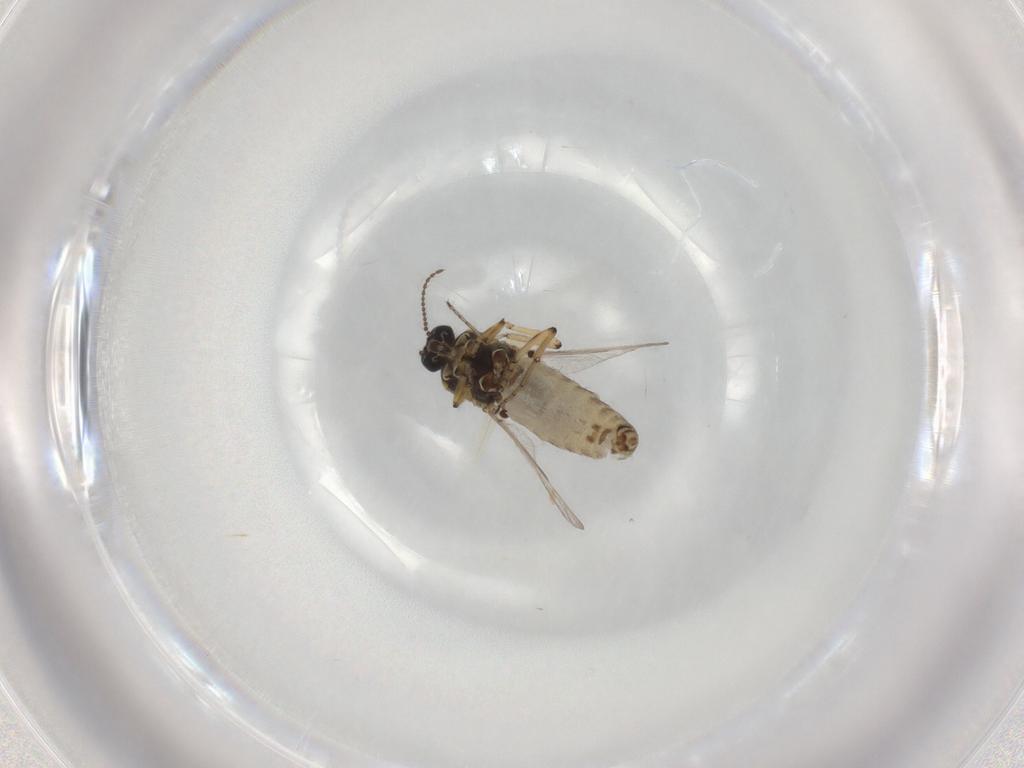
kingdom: Animalia
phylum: Arthropoda
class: Insecta
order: Diptera
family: Ceratopogonidae
